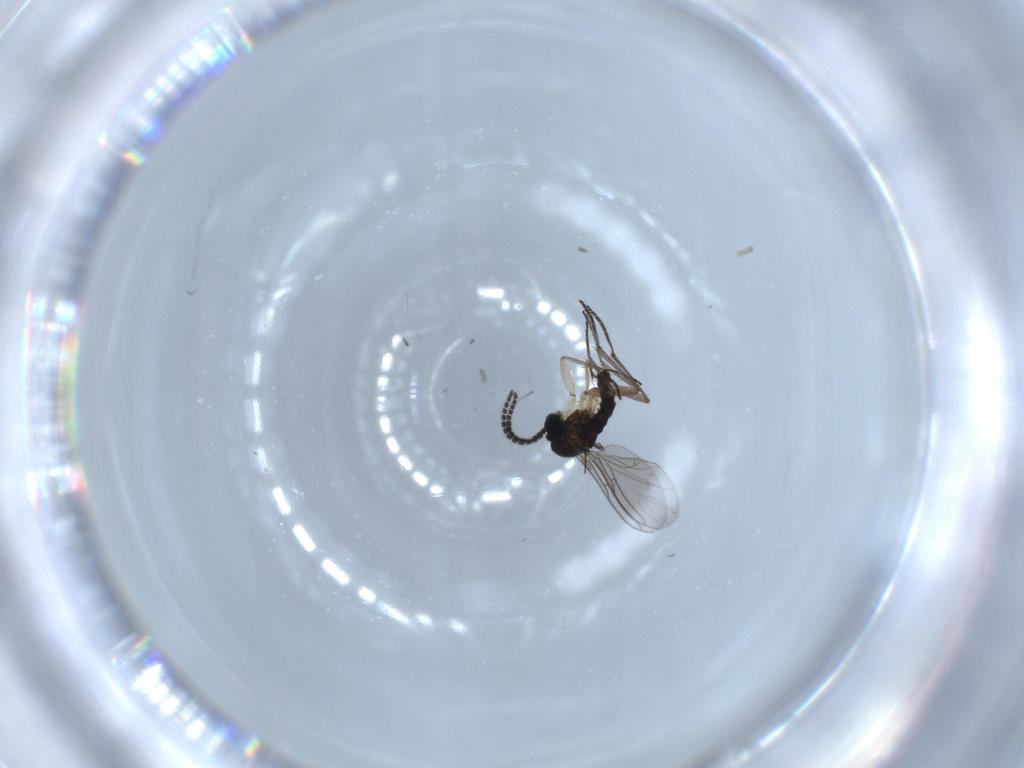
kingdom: Animalia
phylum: Arthropoda
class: Insecta
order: Diptera
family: Sciaridae
